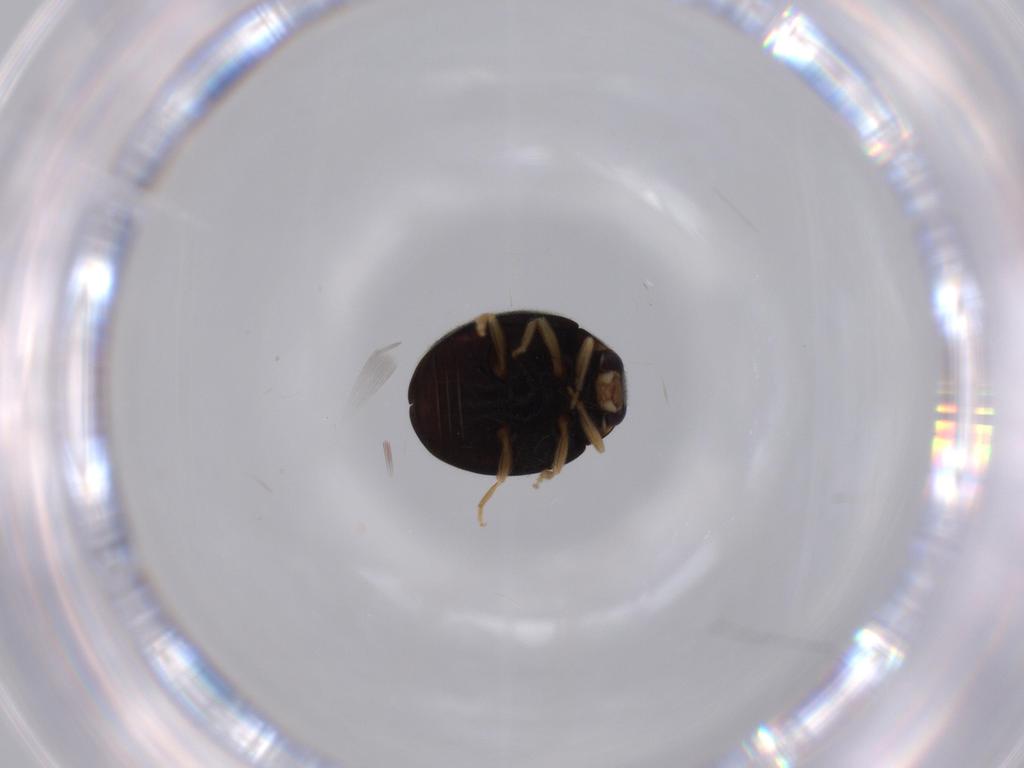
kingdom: Animalia
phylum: Arthropoda
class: Insecta
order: Coleoptera
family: Coccinellidae
